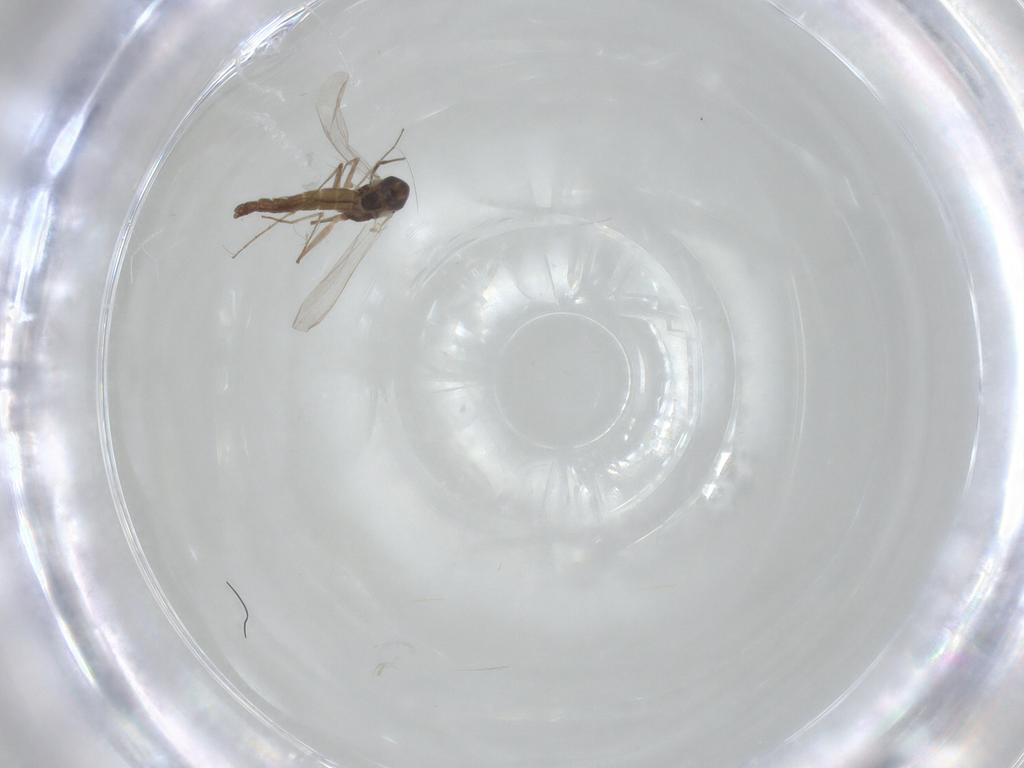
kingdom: Animalia
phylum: Arthropoda
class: Insecta
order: Diptera
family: Chironomidae
